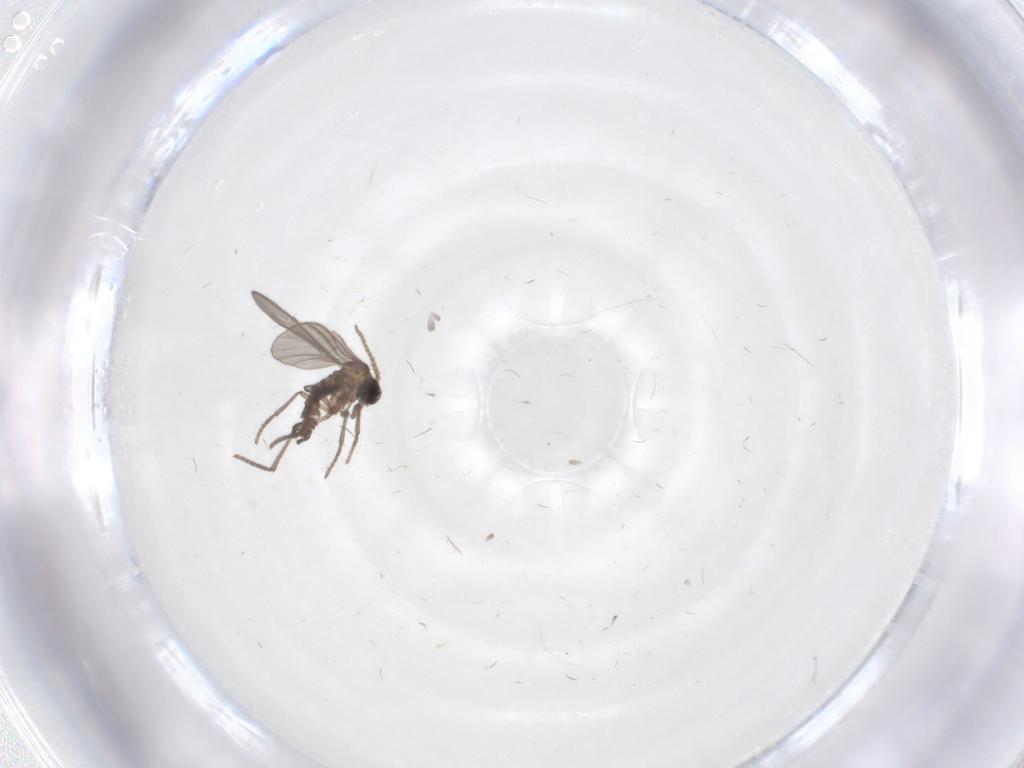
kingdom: Animalia
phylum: Arthropoda
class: Insecta
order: Diptera
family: Sciaridae
